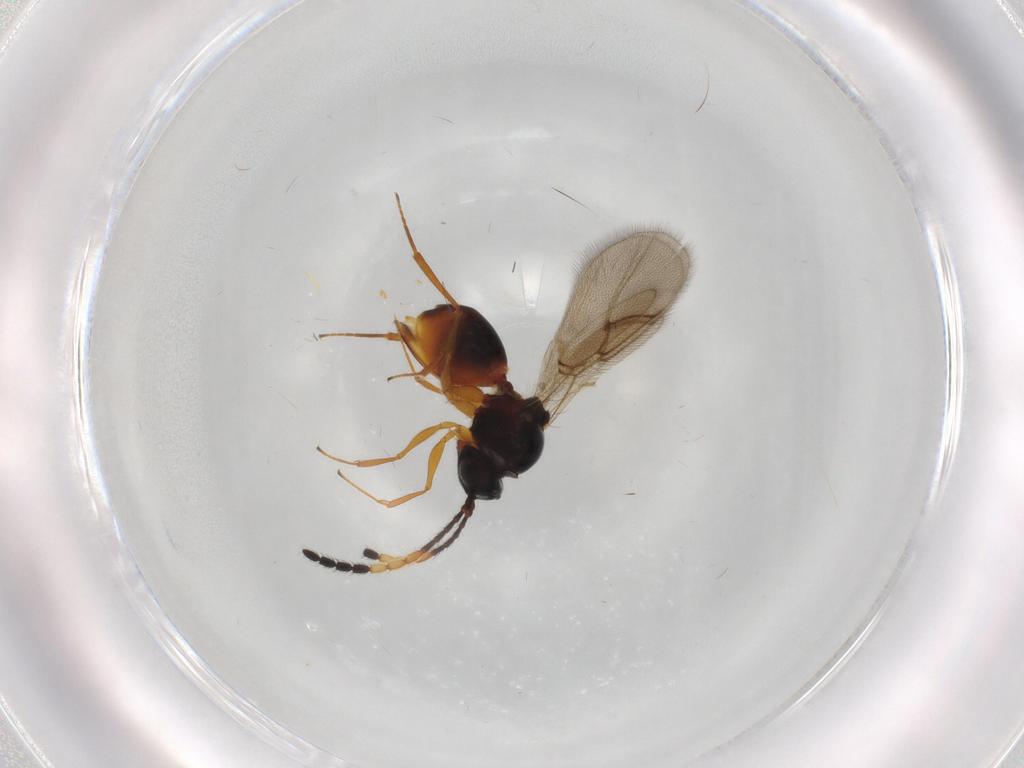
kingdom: Animalia
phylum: Arthropoda
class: Insecta
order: Hymenoptera
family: Figitidae
